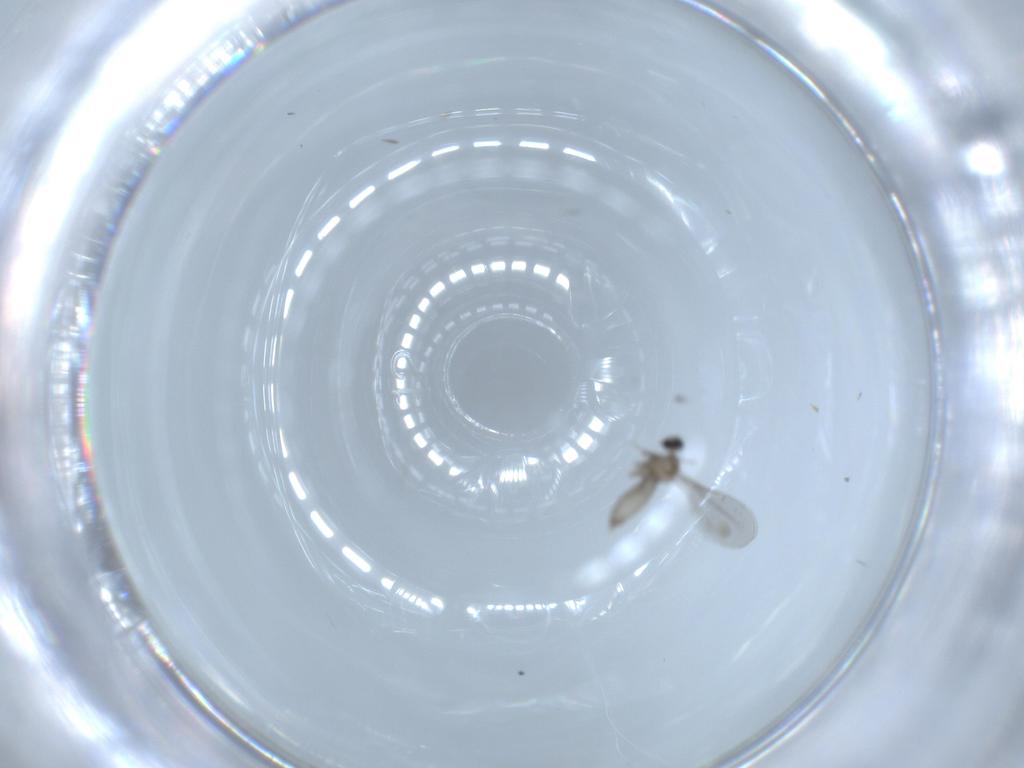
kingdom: Animalia
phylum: Arthropoda
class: Insecta
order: Diptera
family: Cecidomyiidae
